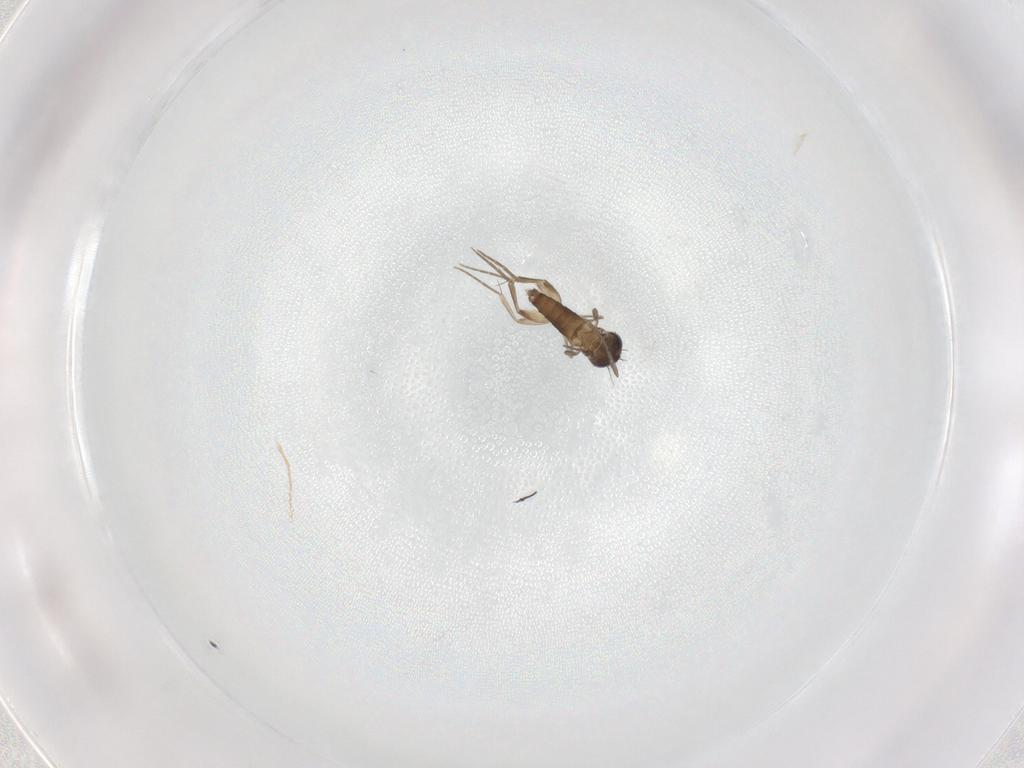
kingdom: Animalia
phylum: Arthropoda
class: Insecta
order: Diptera
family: Phoridae
